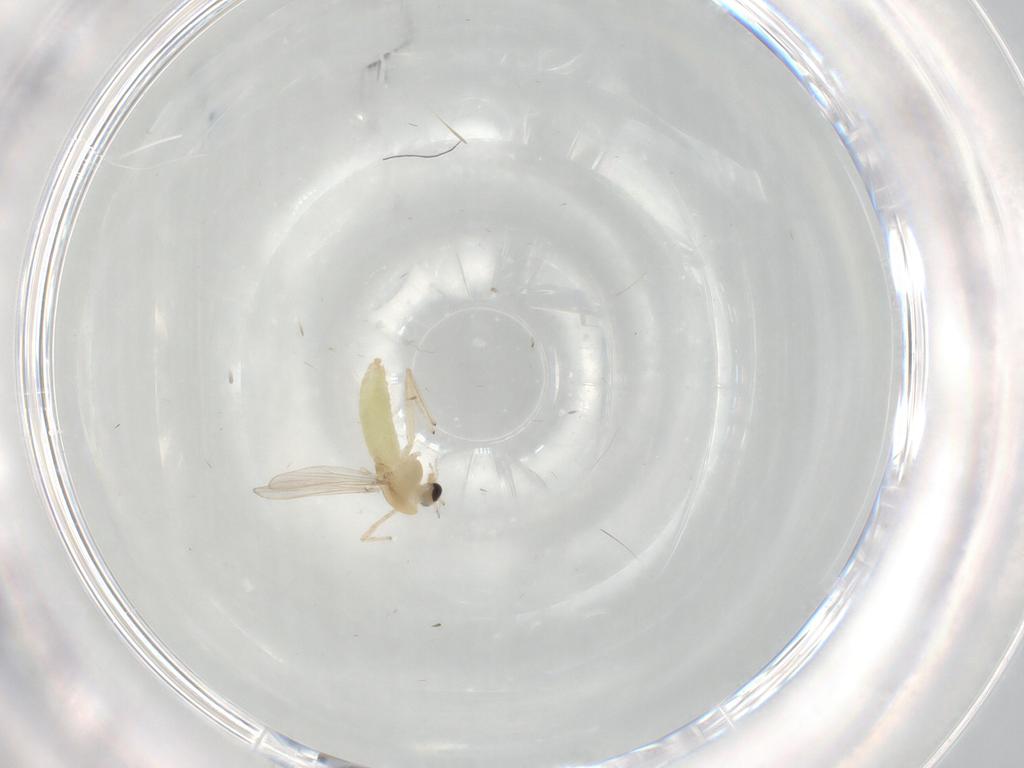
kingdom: Animalia
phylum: Arthropoda
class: Insecta
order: Diptera
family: Chironomidae
